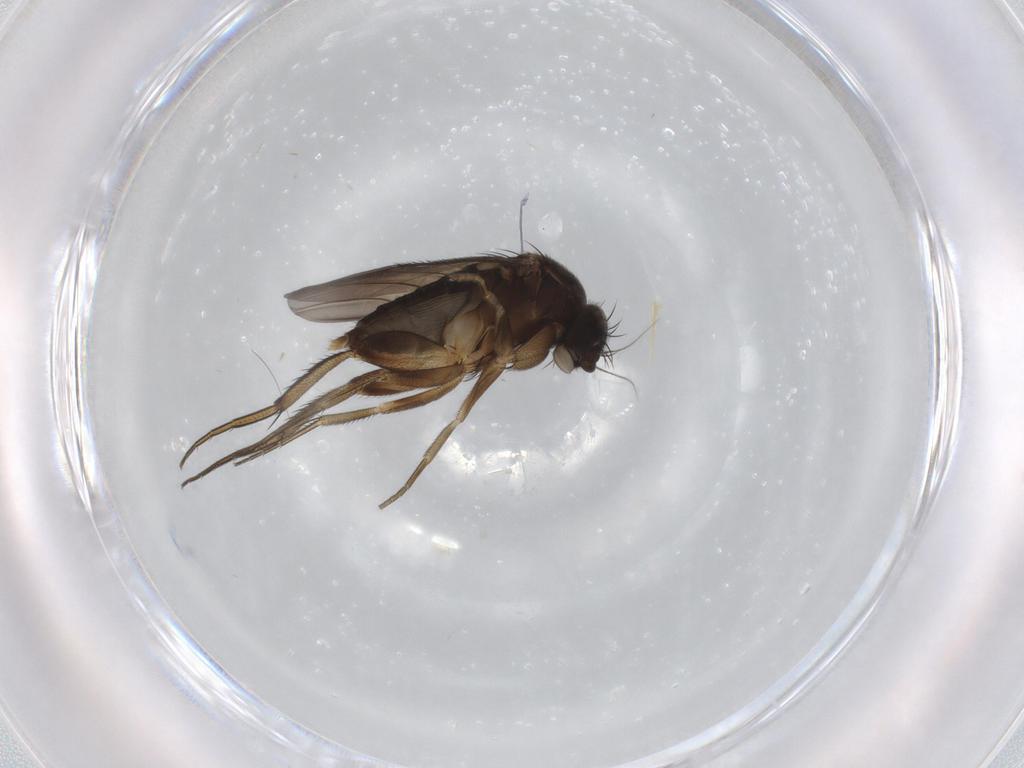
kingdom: Animalia
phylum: Arthropoda
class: Insecta
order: Diptera
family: Phoridae
